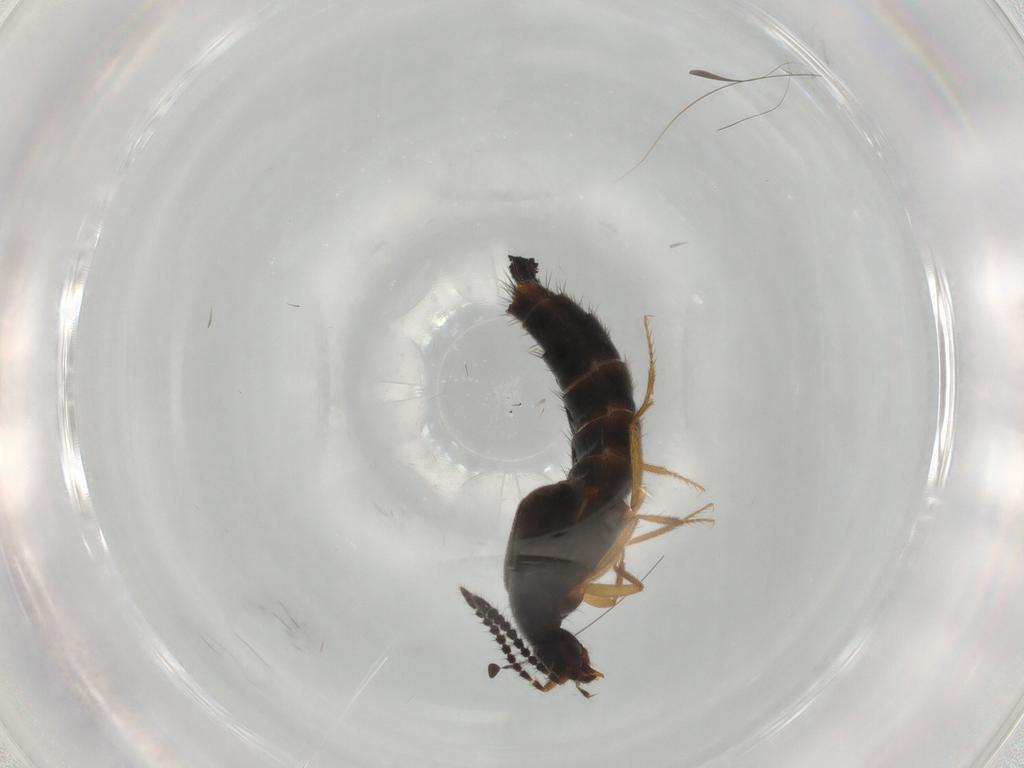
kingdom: Animalia
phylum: Arthropoda
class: Insecta
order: Coleoptera
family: Staphylinidae
